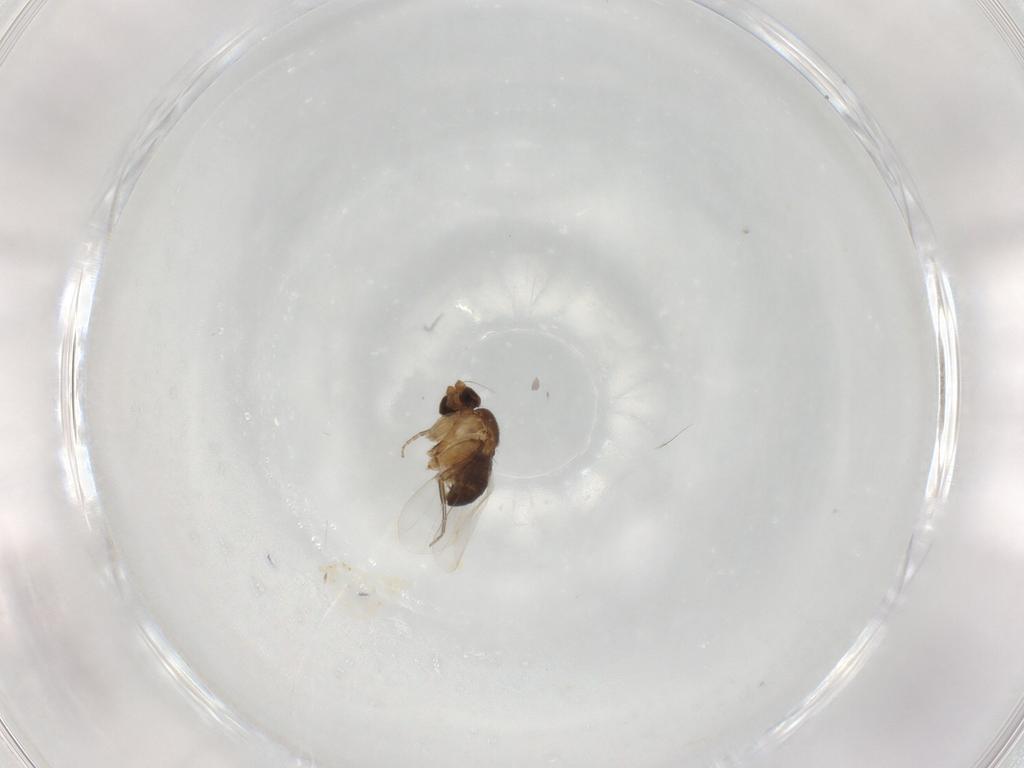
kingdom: Animalia
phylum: Arthropoda
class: Insecta
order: Diptera
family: Phoridae
